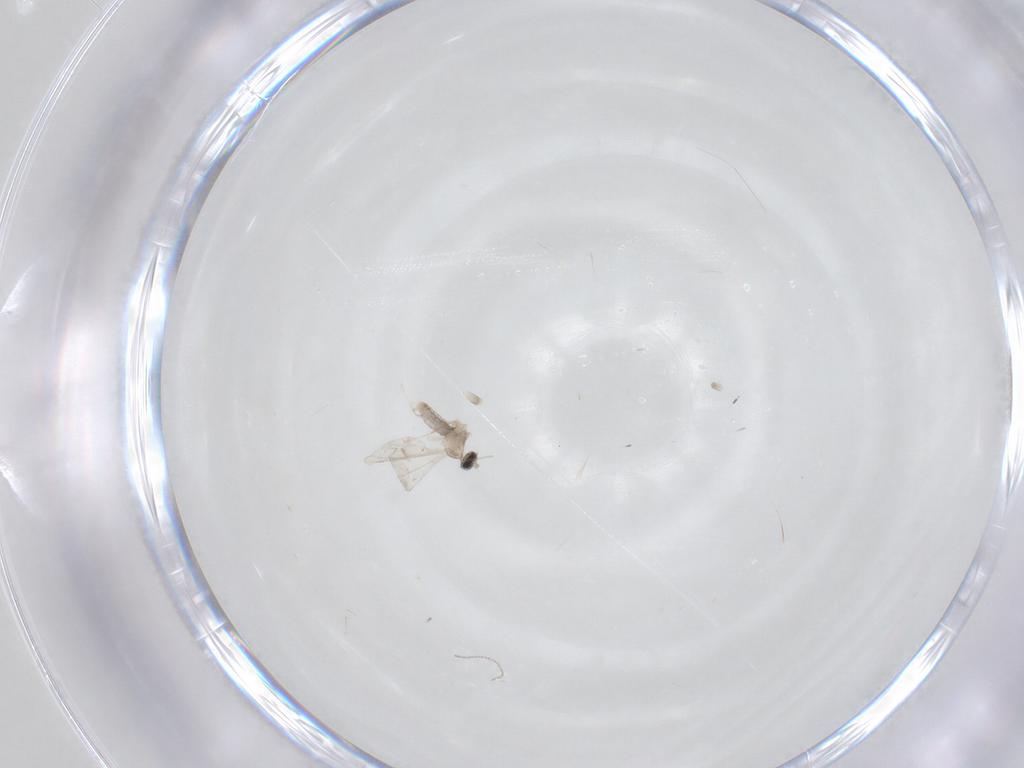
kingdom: Animalia
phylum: Arthropoda
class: Insecta
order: Diptera
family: Cecidomyiidae
